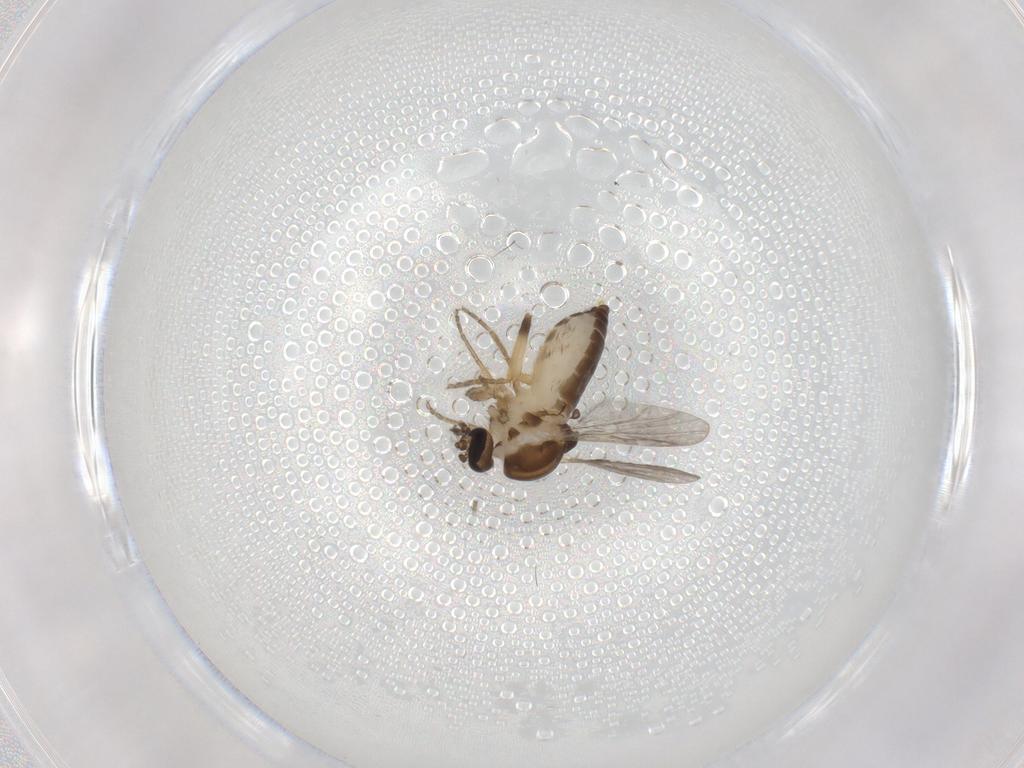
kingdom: Animalia
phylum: Arthropoda
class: Insecta
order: Diptera
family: Ceratopogonidae
